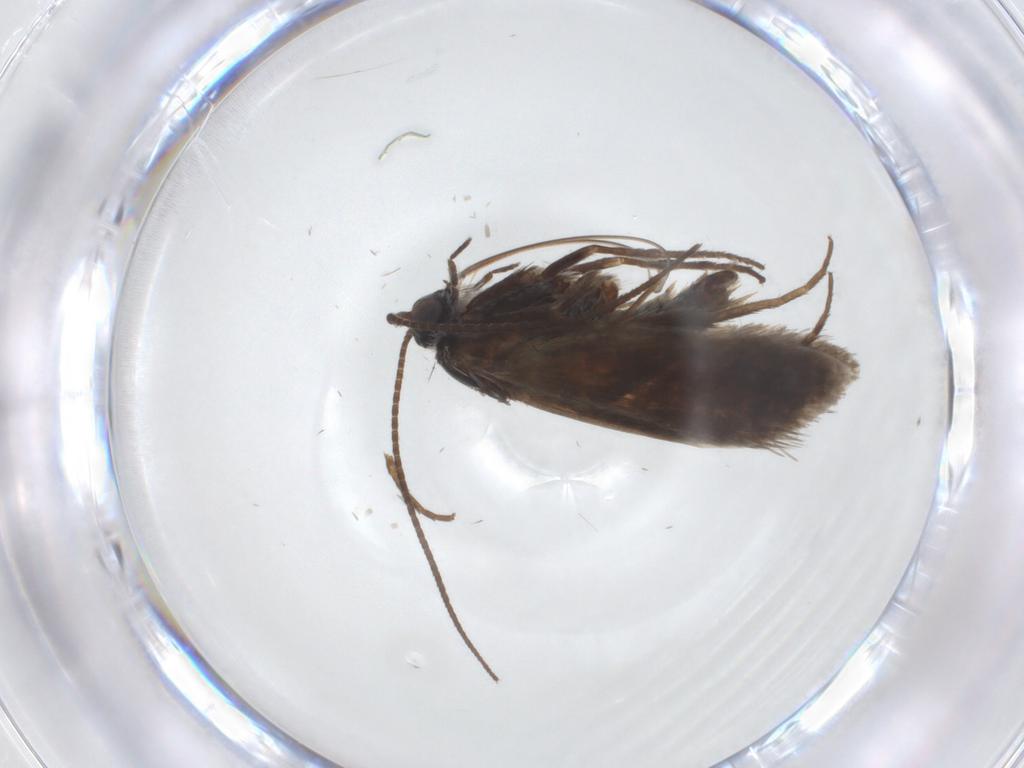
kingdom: Animalia
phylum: Arthropoda
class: Insecta
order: Lepidoptera
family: Adelidae
